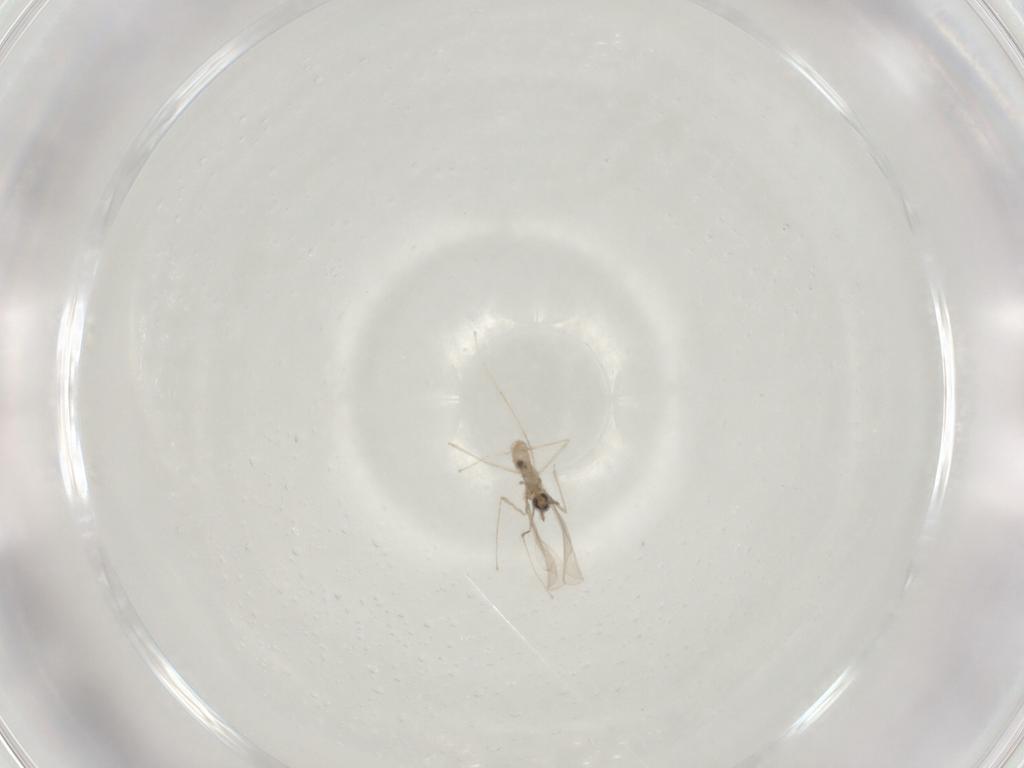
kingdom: Animalia
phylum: Arthropoda
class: Insecta
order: Diptera
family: Cecidomyiidae
